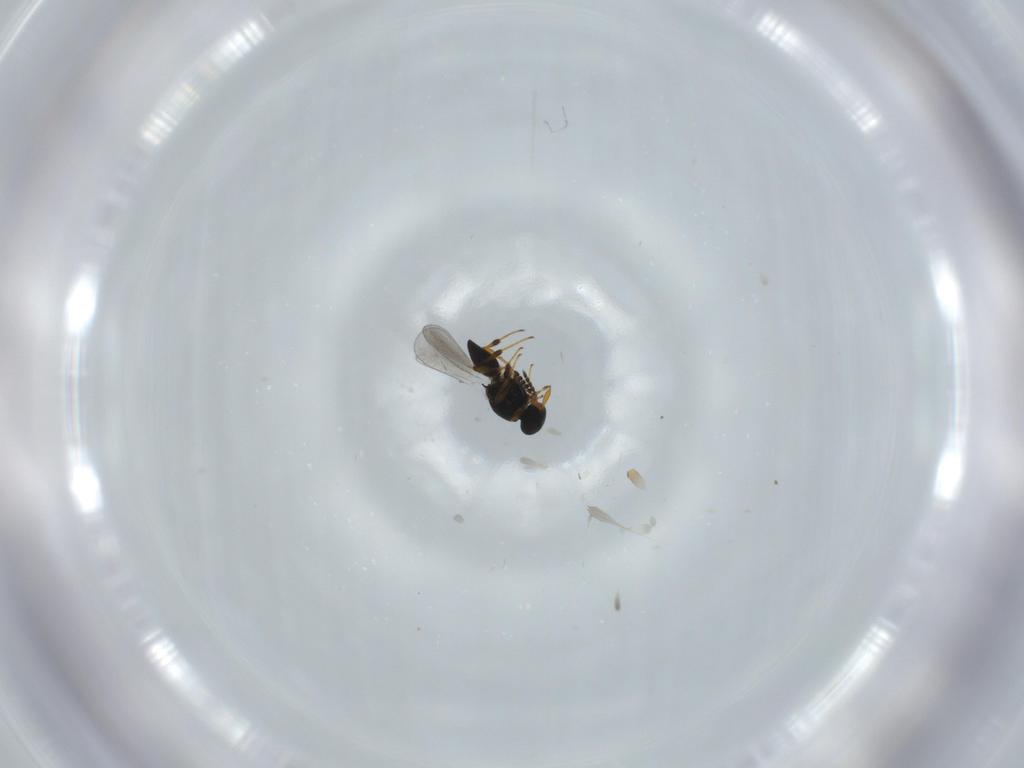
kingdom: Animalia
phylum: Arthropoda
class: Insecta
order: Hymenoptera
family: Platygastridae
